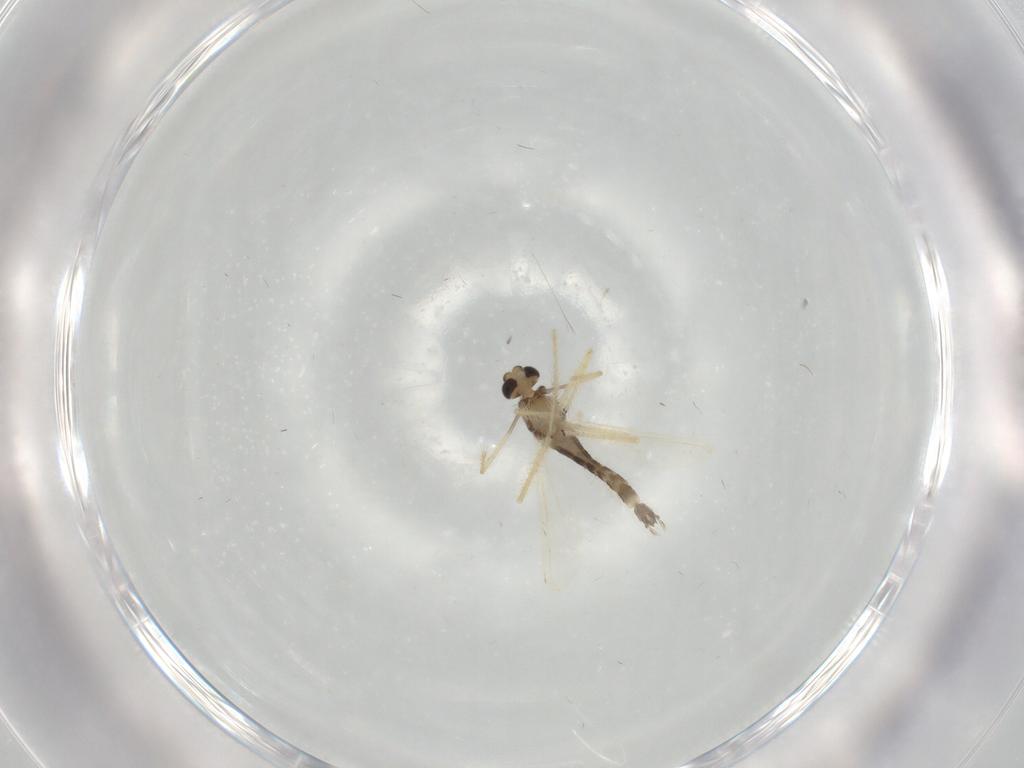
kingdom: Animalia
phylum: Arthropoda
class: Insecta
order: Diptera
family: Chironomidae
